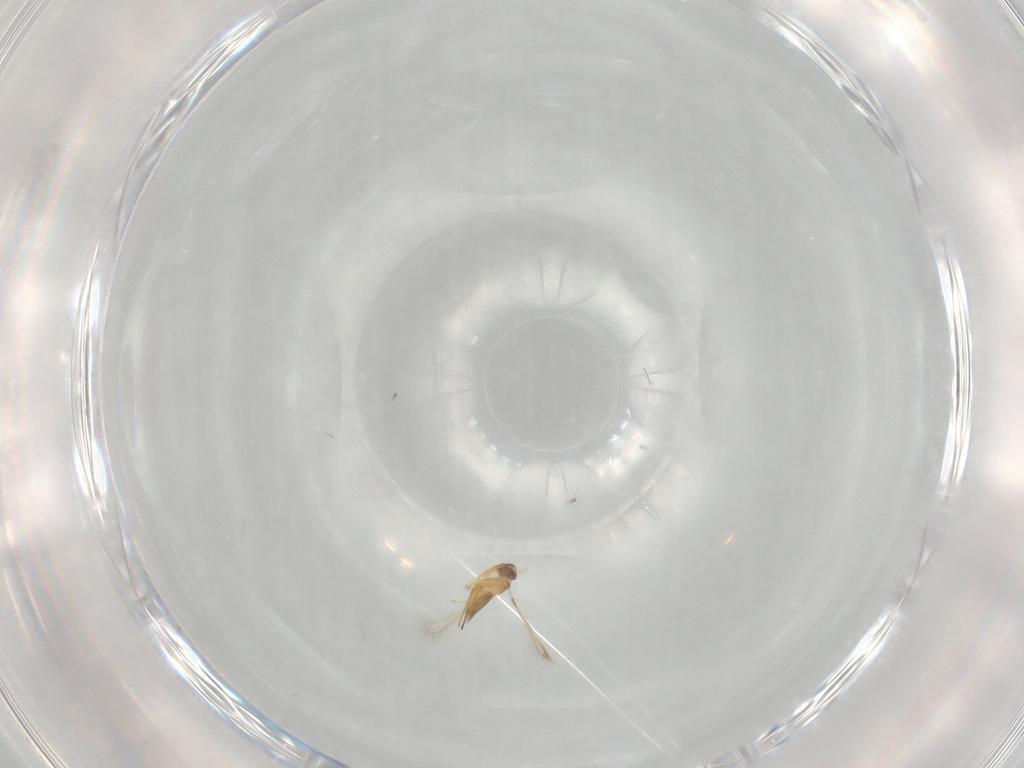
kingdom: Animalia
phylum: Arthropoda
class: Insecta
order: Hymenoptera
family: Mymaridae
